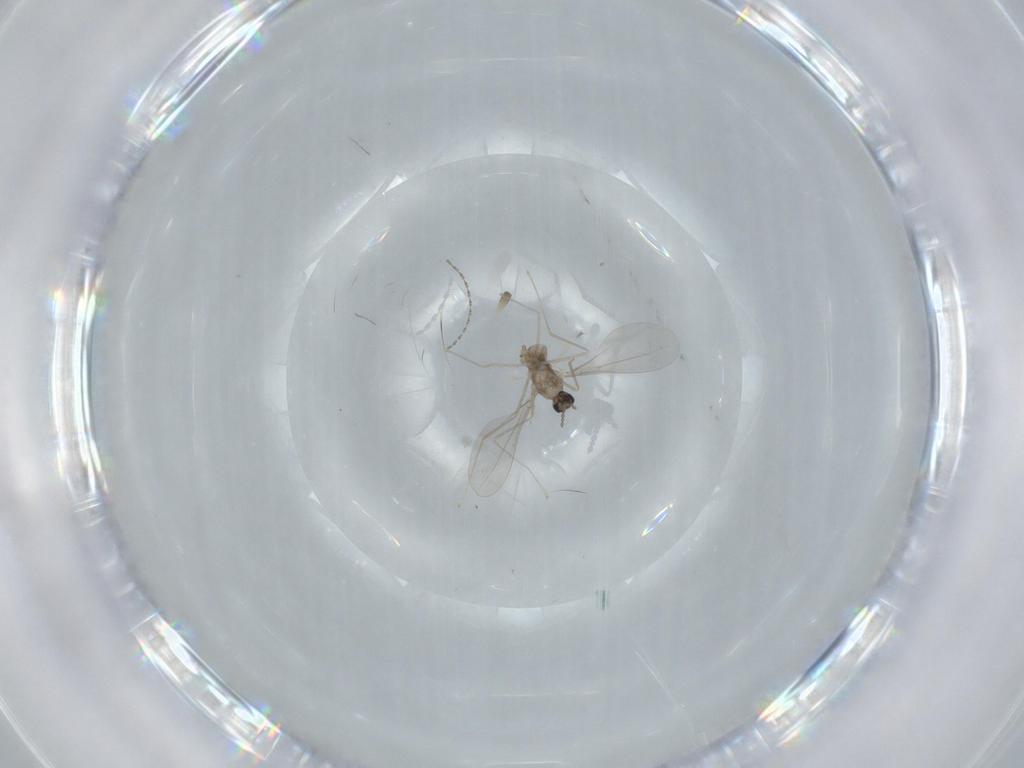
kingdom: Animalia
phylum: Arthropoda
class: Insecta
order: Diptera
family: Cecidomyiidae
